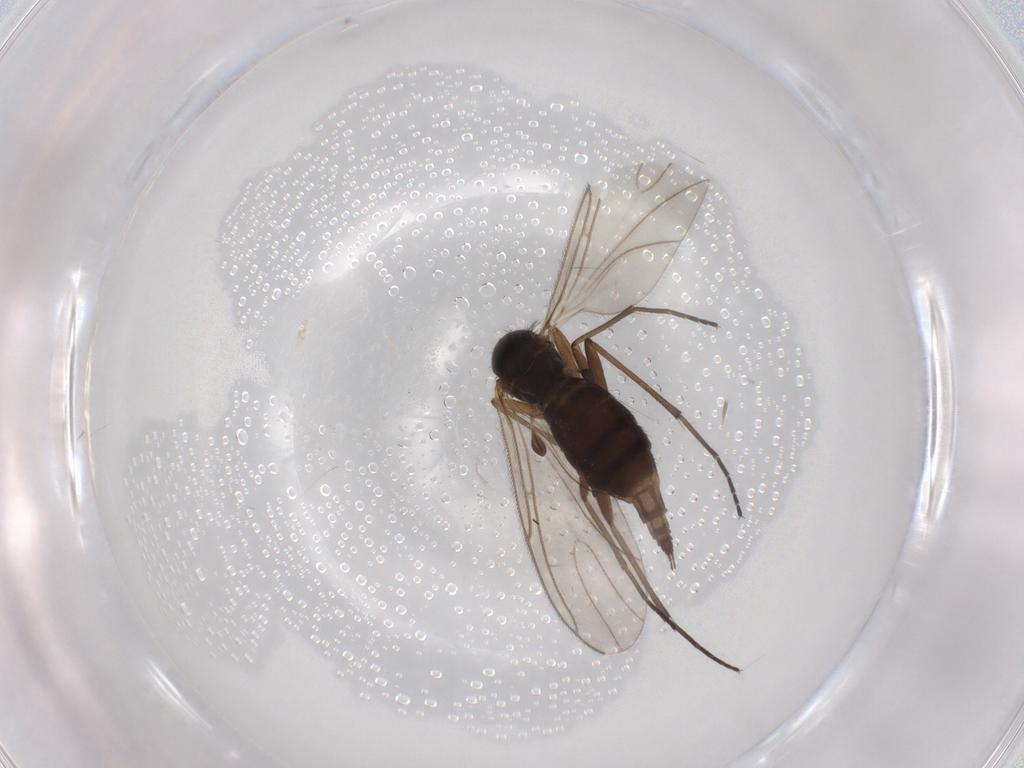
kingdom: Animalia
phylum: Arthropoda
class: Insecta
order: Diptera
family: Sciaridae
